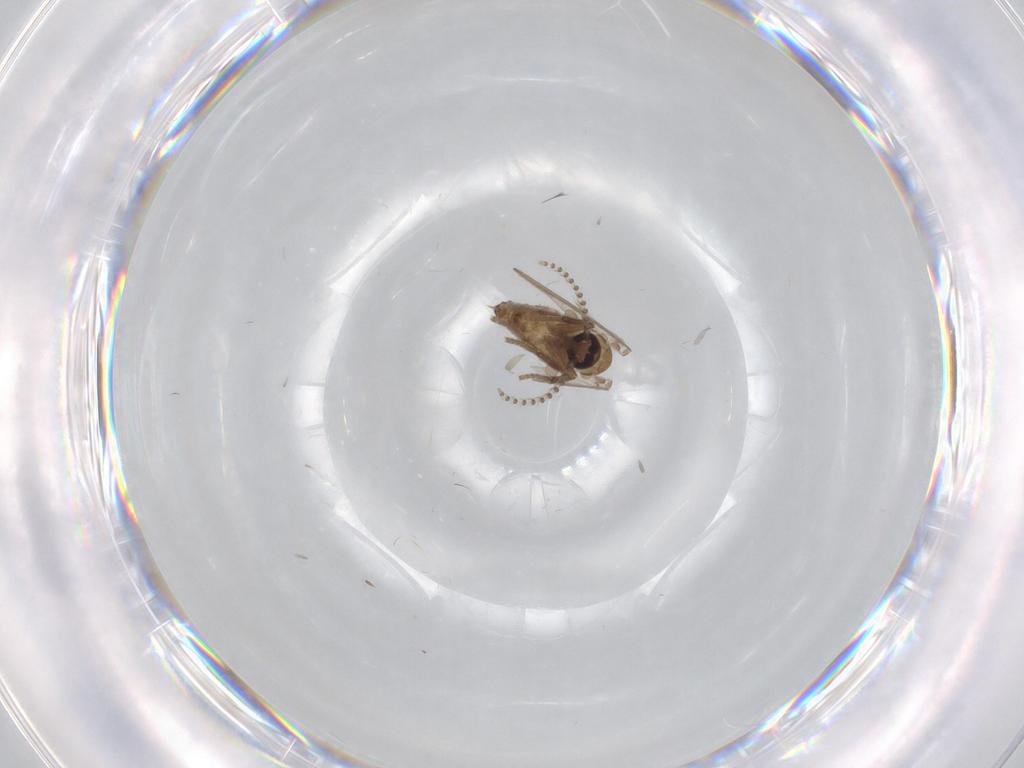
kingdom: Animalia
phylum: Arthropoda
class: Insecta
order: Diptera
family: Psychodidae
